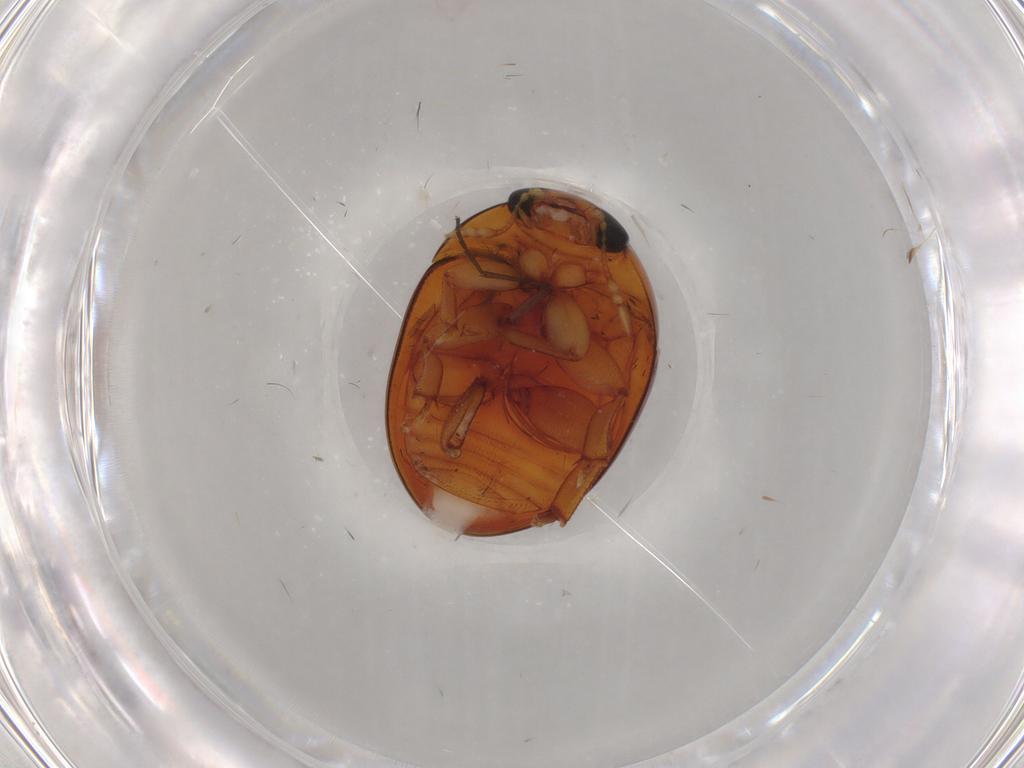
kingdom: Animalia
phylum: Arthropoda
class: Insecta
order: Coleoptera
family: Phalacridae
